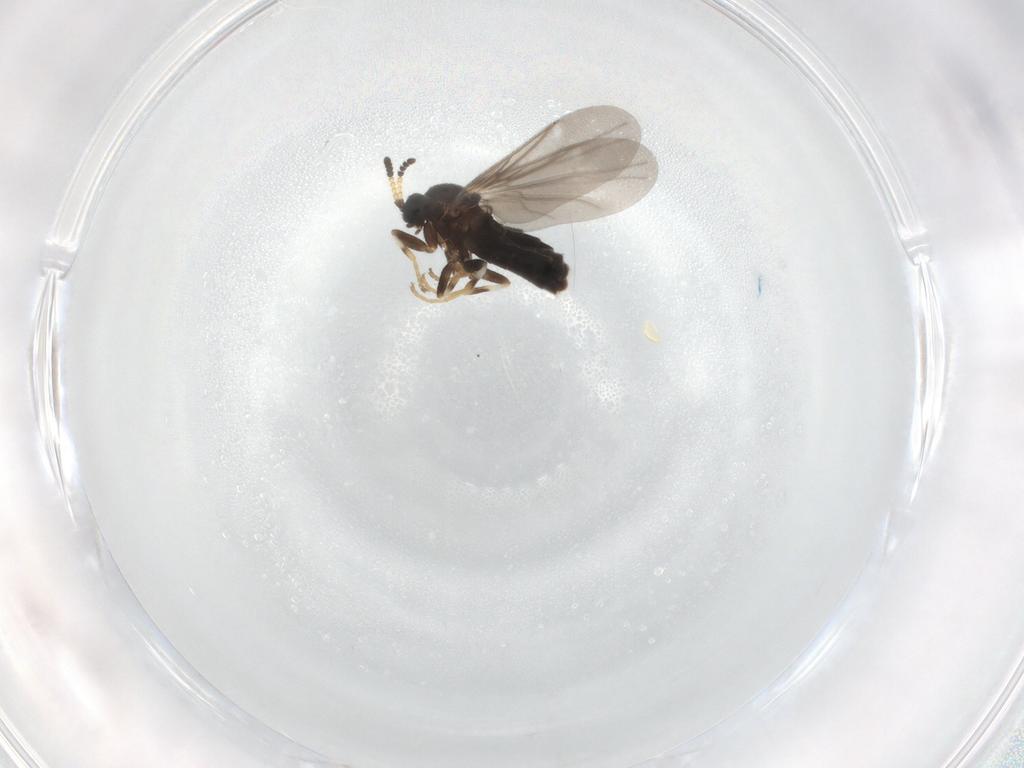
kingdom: Animalia
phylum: Arthropoda
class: Insecta
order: Diptera
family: Scatopsidae
